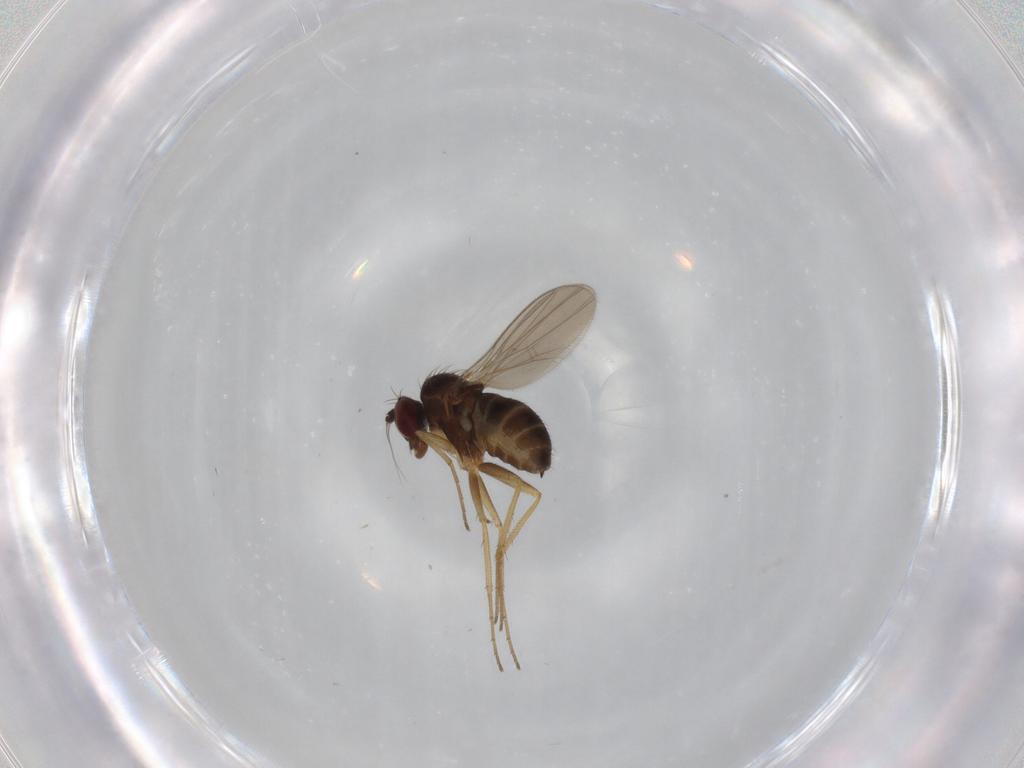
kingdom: Animalia
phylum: Arthropoda
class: Insecta
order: Diptera
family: Dolichopodidae
